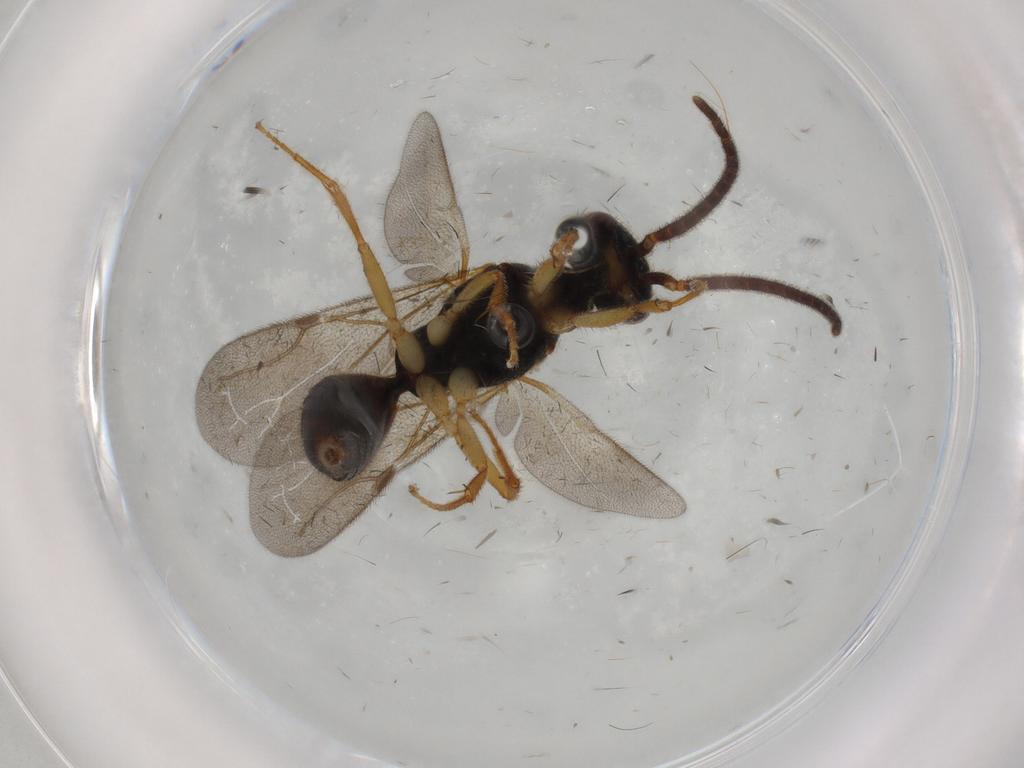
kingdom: Animalia
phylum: Arthropoda
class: Insecta
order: Hymenoptera
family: Bethylidae
